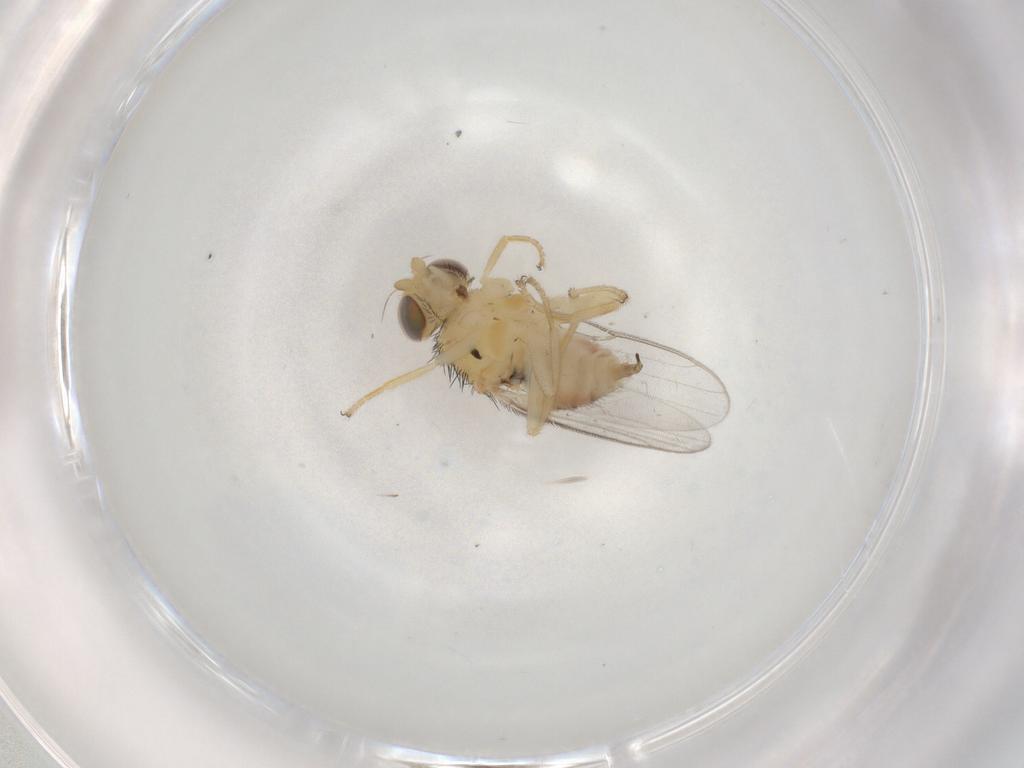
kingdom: Animalia
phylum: Arthropoda
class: Insecta
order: Diptera
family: Chloropidae
